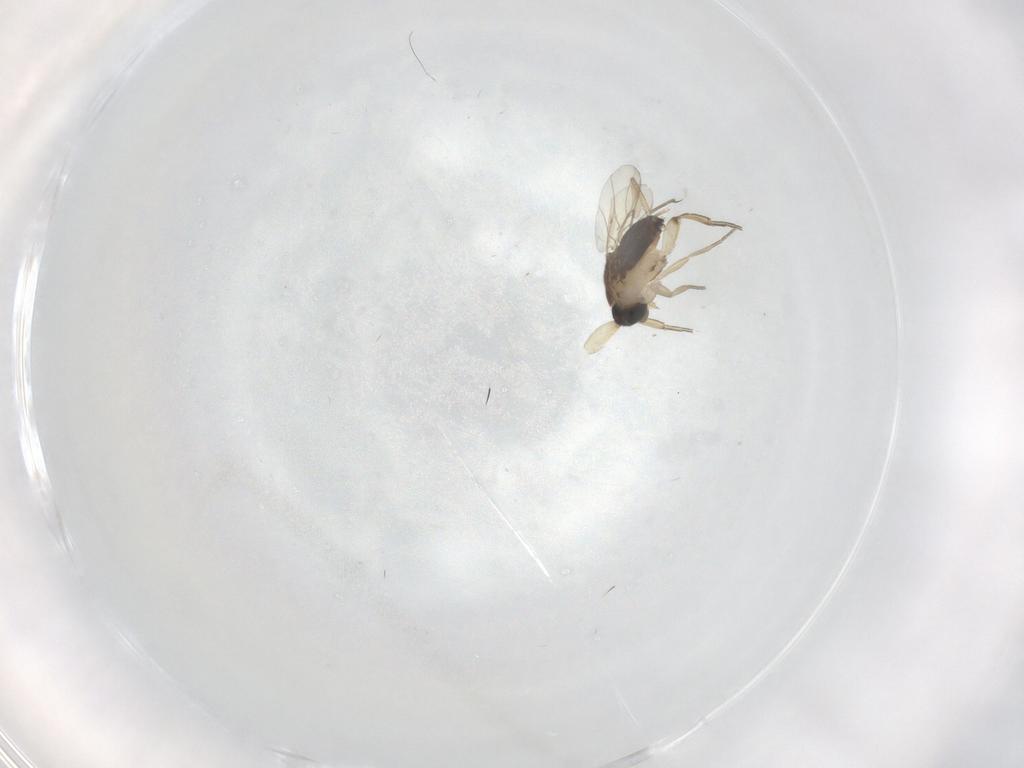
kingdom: Animalia
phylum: Arthropoda
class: Insecta
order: Diptera
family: Phoridae
